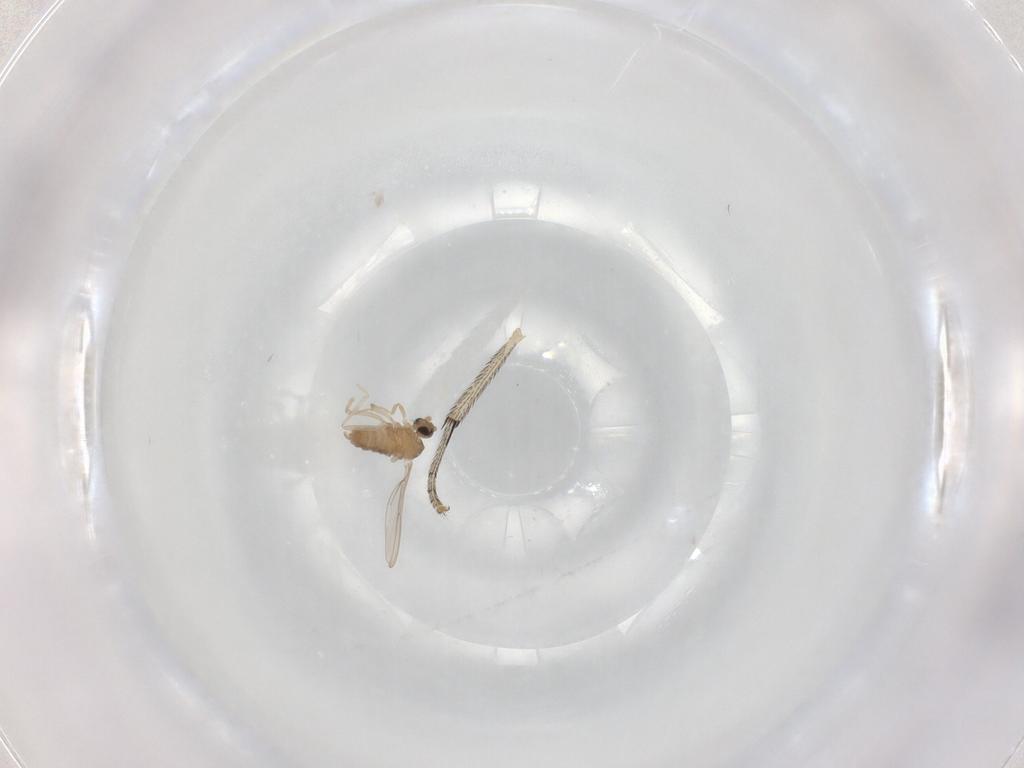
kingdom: Animalia
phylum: Arthropoda
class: Insecta
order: Diptera
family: Cecidomyiidae
